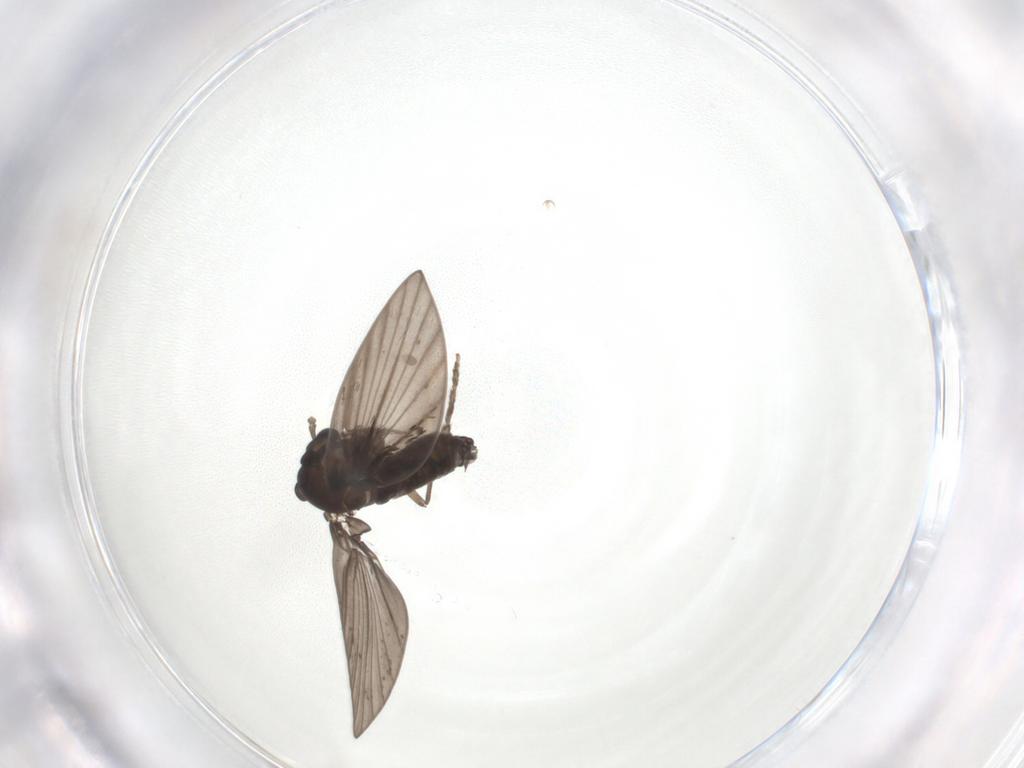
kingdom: Animalia
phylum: Arthropoda
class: Insecta
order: Diptera
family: Psychodidae
